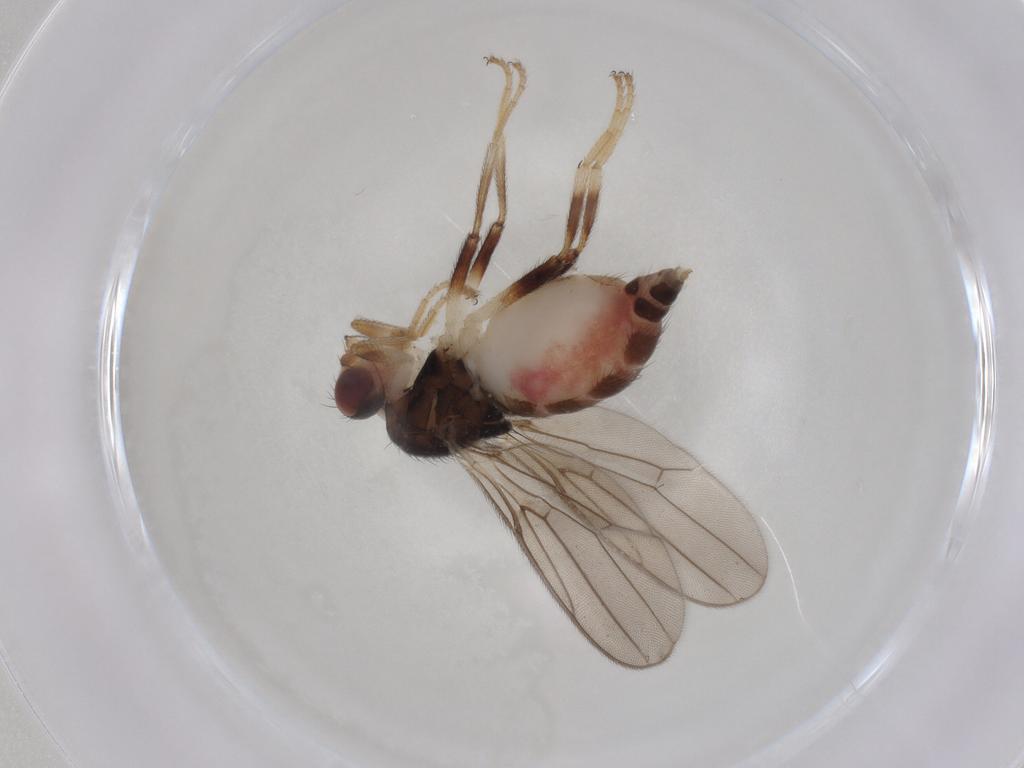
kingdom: Animalia
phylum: Arthropoda
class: Insecta
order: Diptera
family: Chloropidae
